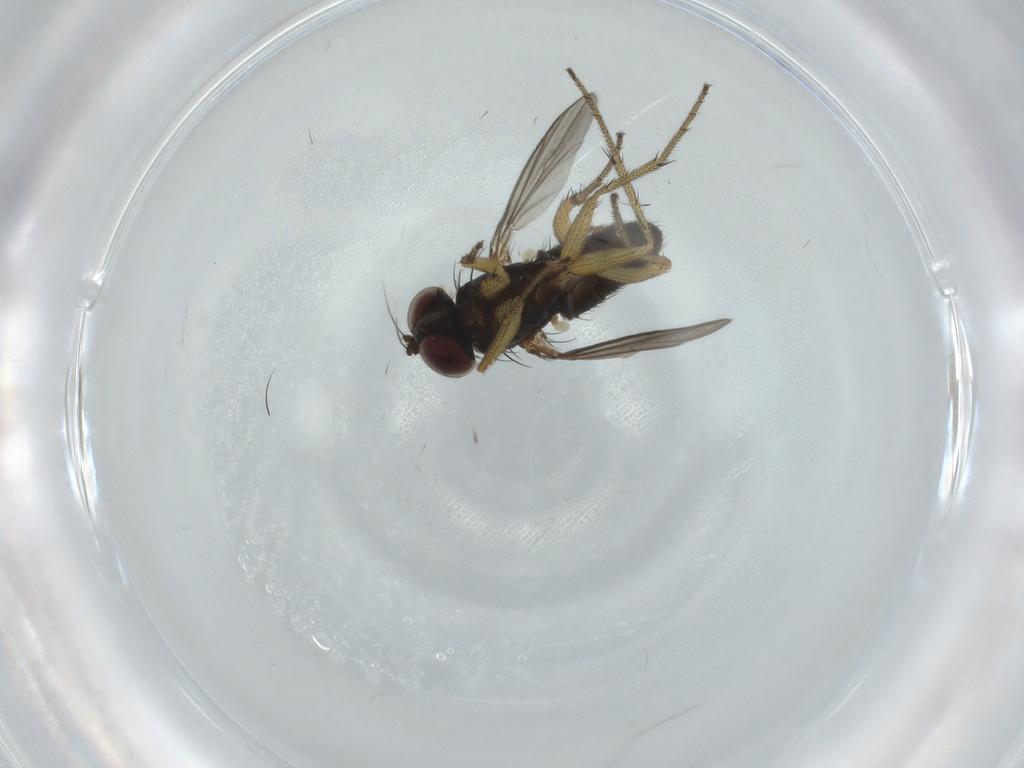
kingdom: Animalia
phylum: Arthropoda
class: Insecta
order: Diptera
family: Dolichopodidae
